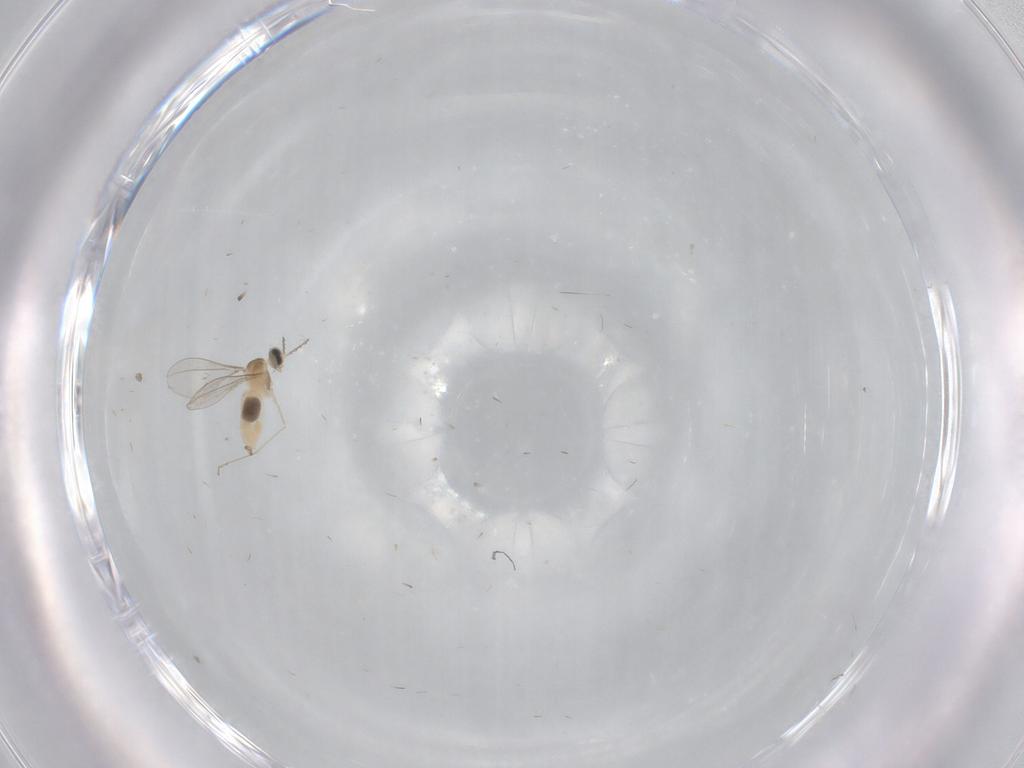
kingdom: Animalia
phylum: Arthropoda
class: Insecta
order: Diptera
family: Cecidomyiidae
